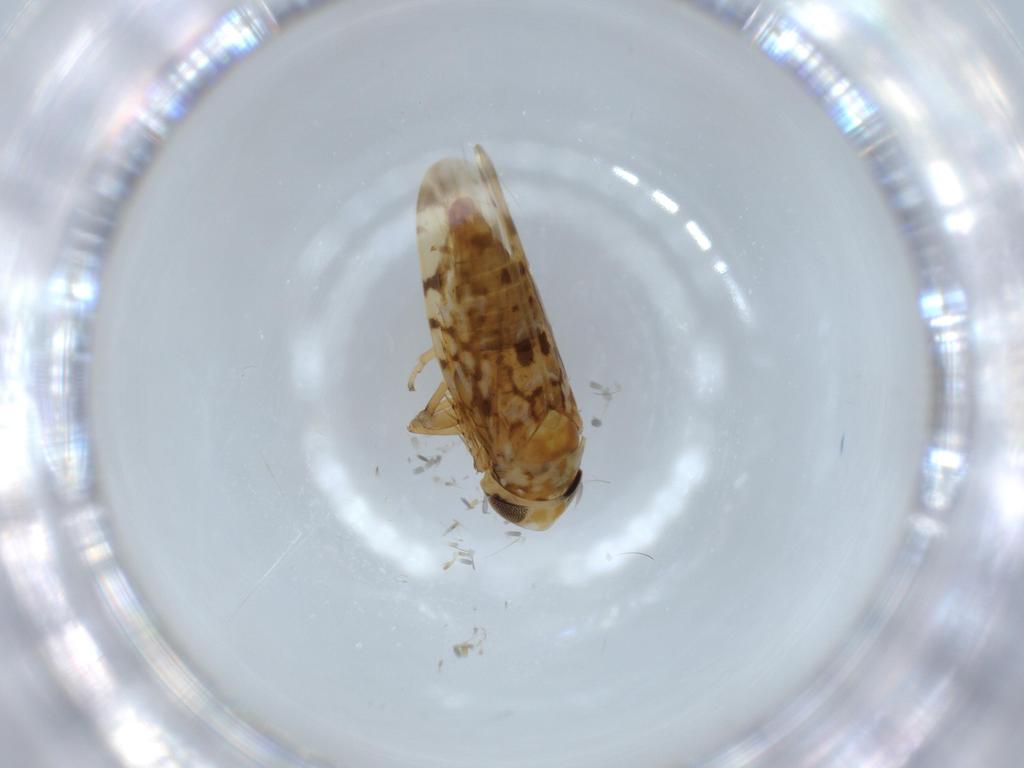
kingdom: Animalia
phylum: Arthropoda
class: Insecta
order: Hemiptera
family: Cicadellidae
